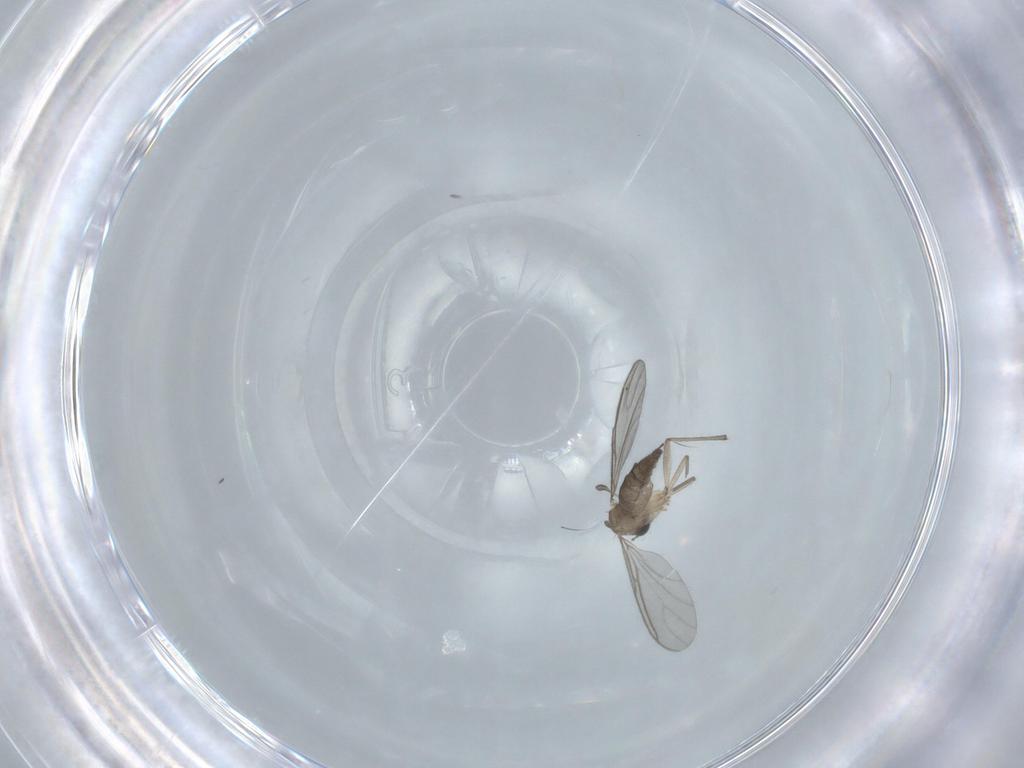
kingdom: Animalia
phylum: Arthropoda
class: Insecta
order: Diptera
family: Sciaridae
